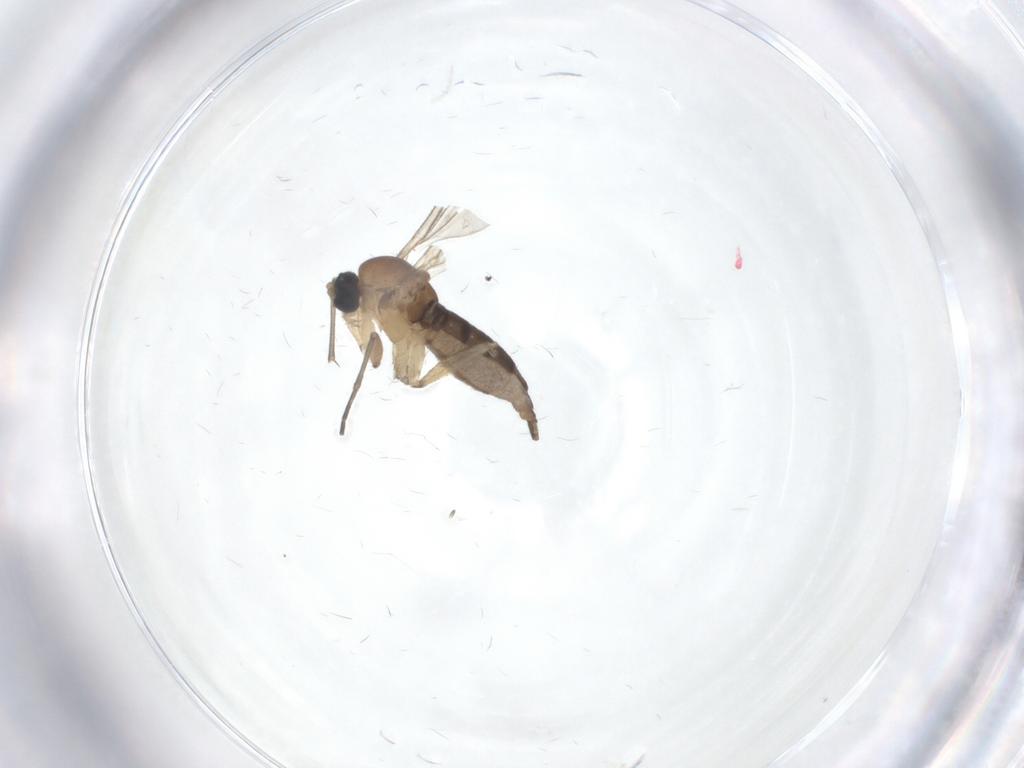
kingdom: Animalia
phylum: Arthropoda
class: Insecta
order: Diptera
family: Sciaridae
